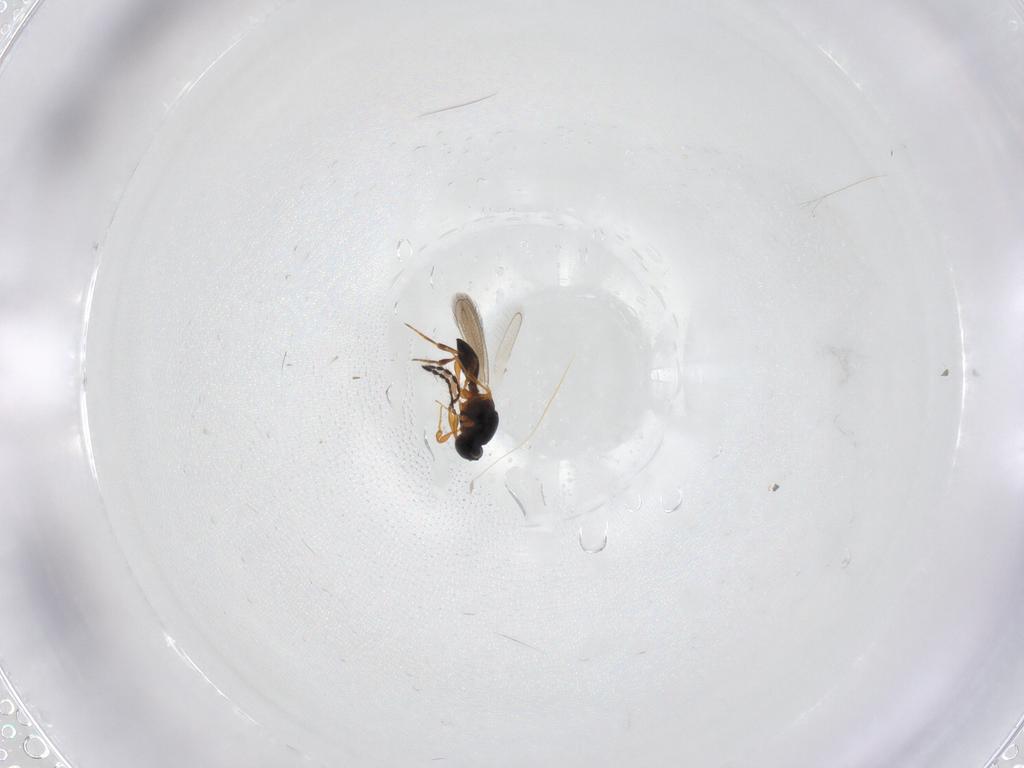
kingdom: Animalia
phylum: Arthropoda
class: Insecta
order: Hymenoptera
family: Platygastridae
